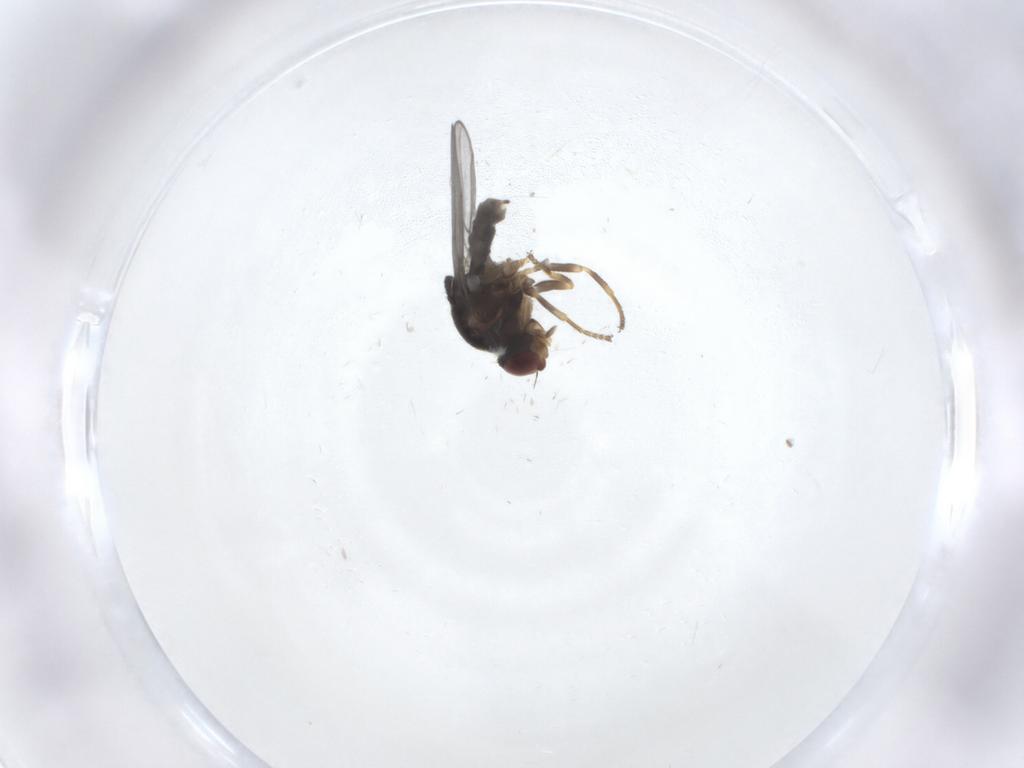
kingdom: Animalia
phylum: Arthropoda
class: Insecta
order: Diptera
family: Chloropidae
